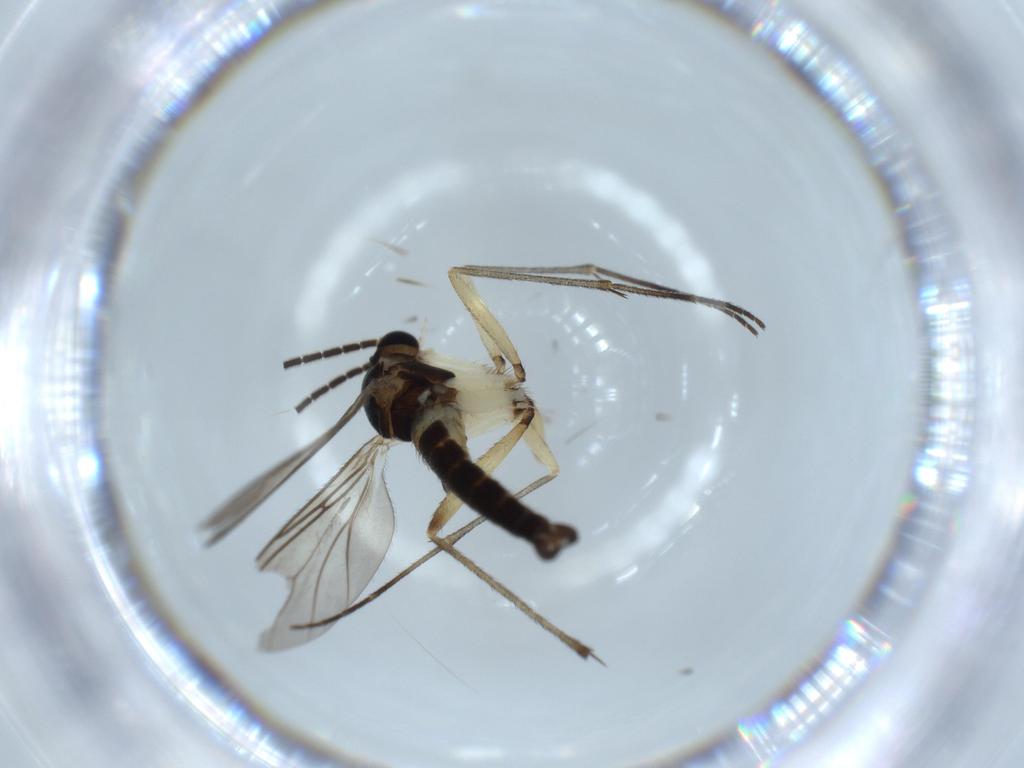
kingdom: Animalia
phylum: Arthropoda
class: Insecta
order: Diptera
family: Sciaridae
